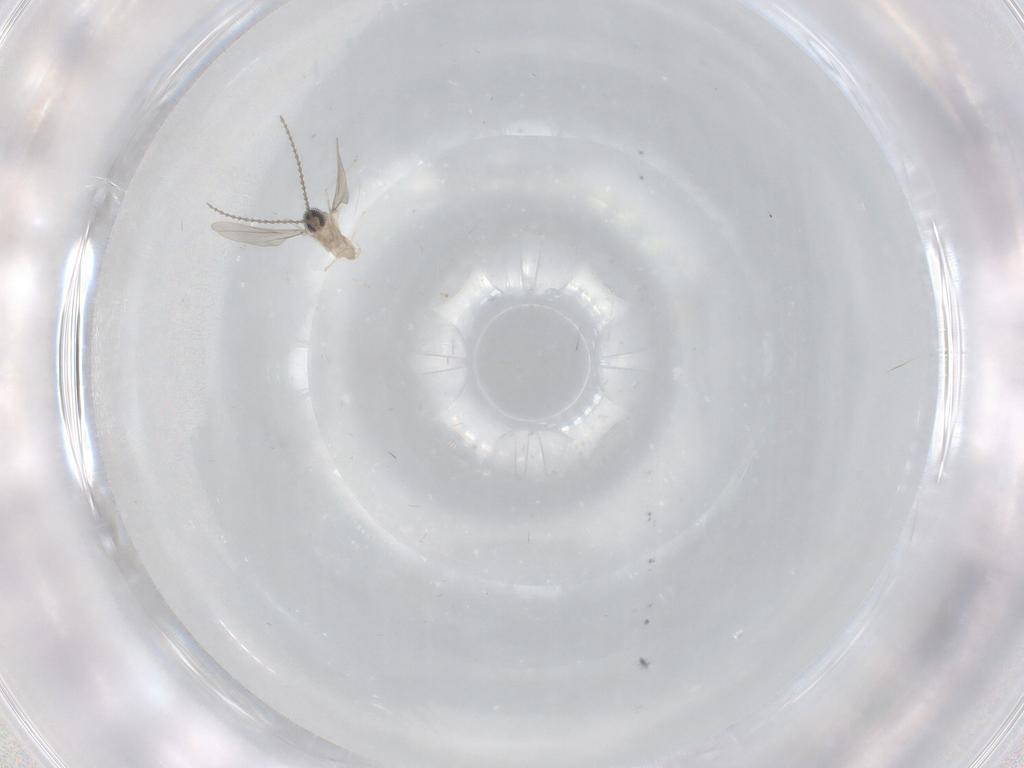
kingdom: Animalia
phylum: Arthropoda
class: Insecta
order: Diptera
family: Cecidomyiidae
